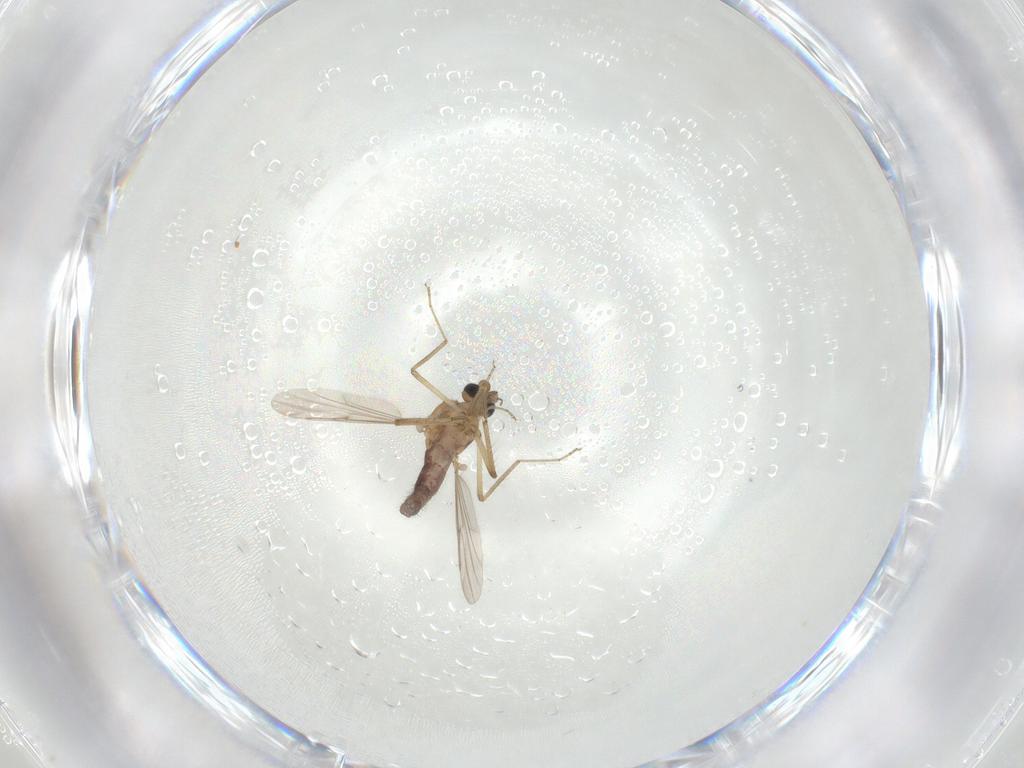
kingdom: Animalia
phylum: Arthropoda
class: Insecta
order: Diptera
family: Ceratopogonidae
